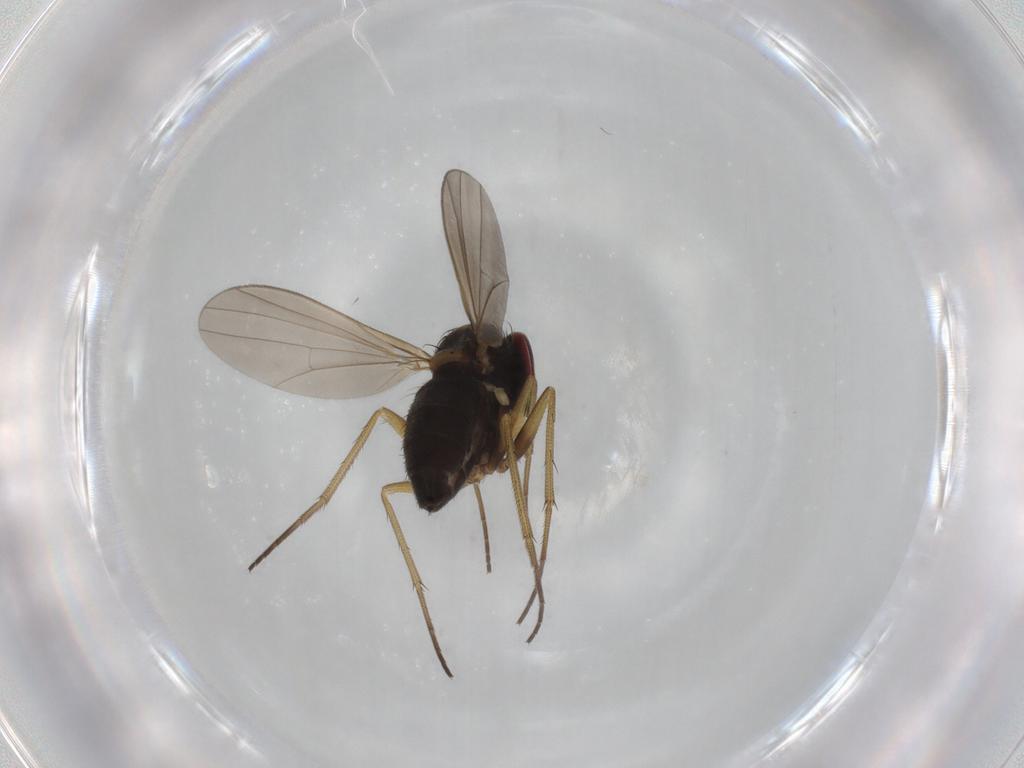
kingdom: Animalia
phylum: Arthropoda
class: Insecta
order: Diptera
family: Dolichopodidae
